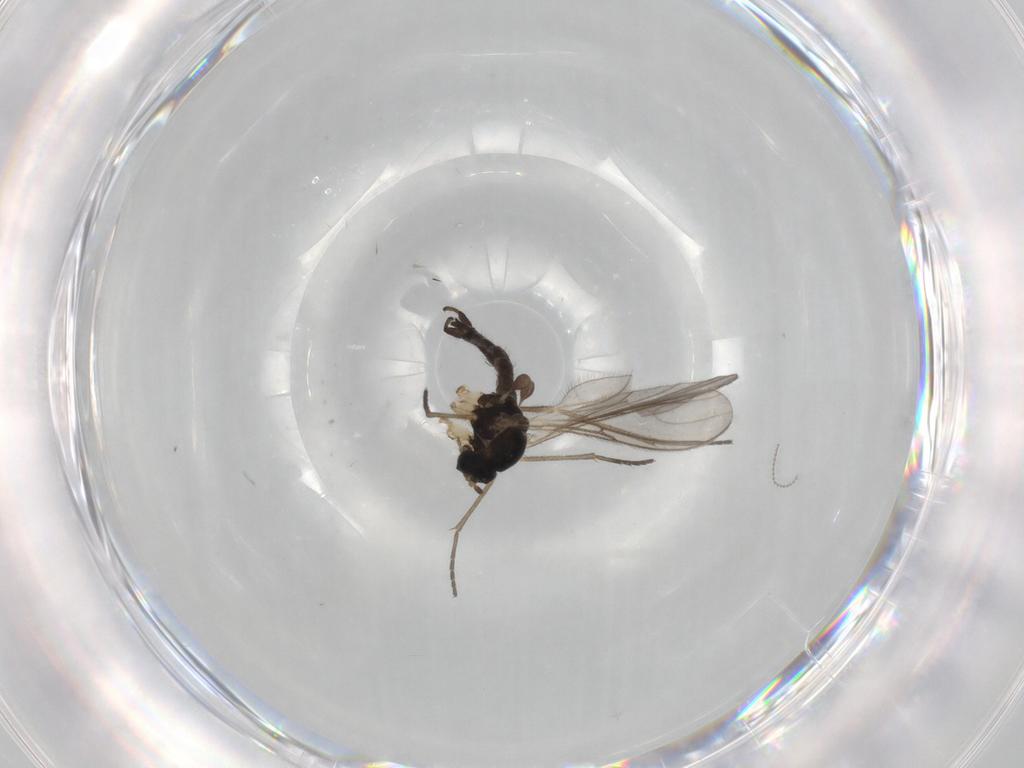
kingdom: Animalia
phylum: Arthropoda
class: Insecta
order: Diptera
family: Sciaridae
